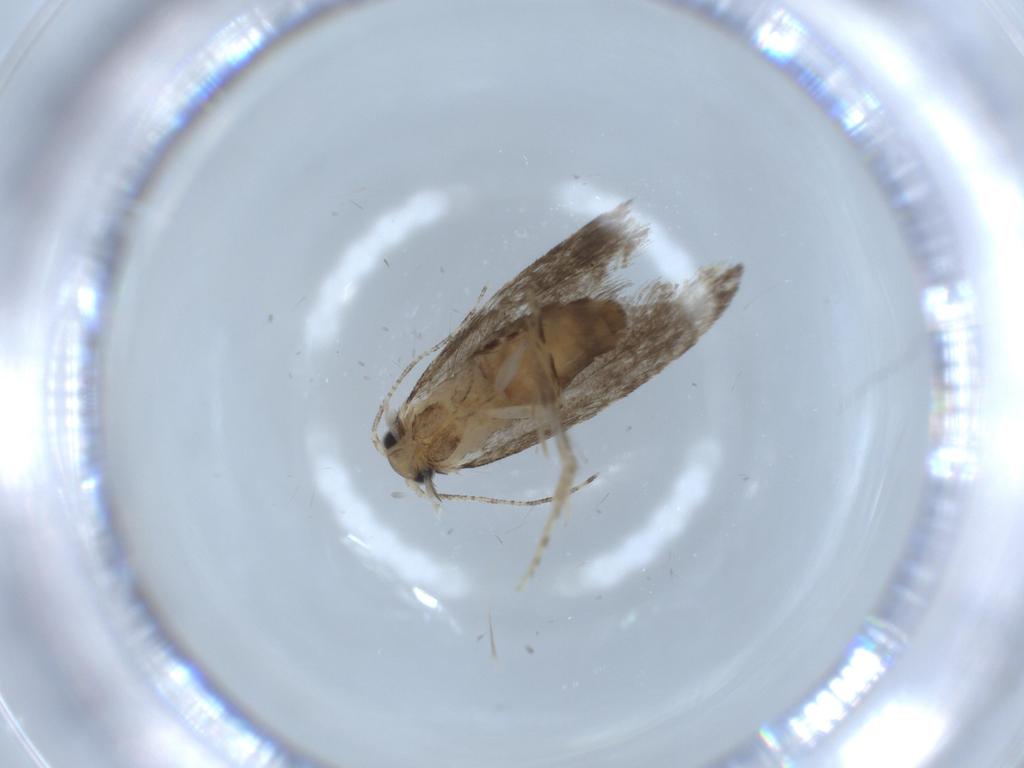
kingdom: Animalia
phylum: Arthropoda
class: Insecta
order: Lepidoptera
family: Tineidae
